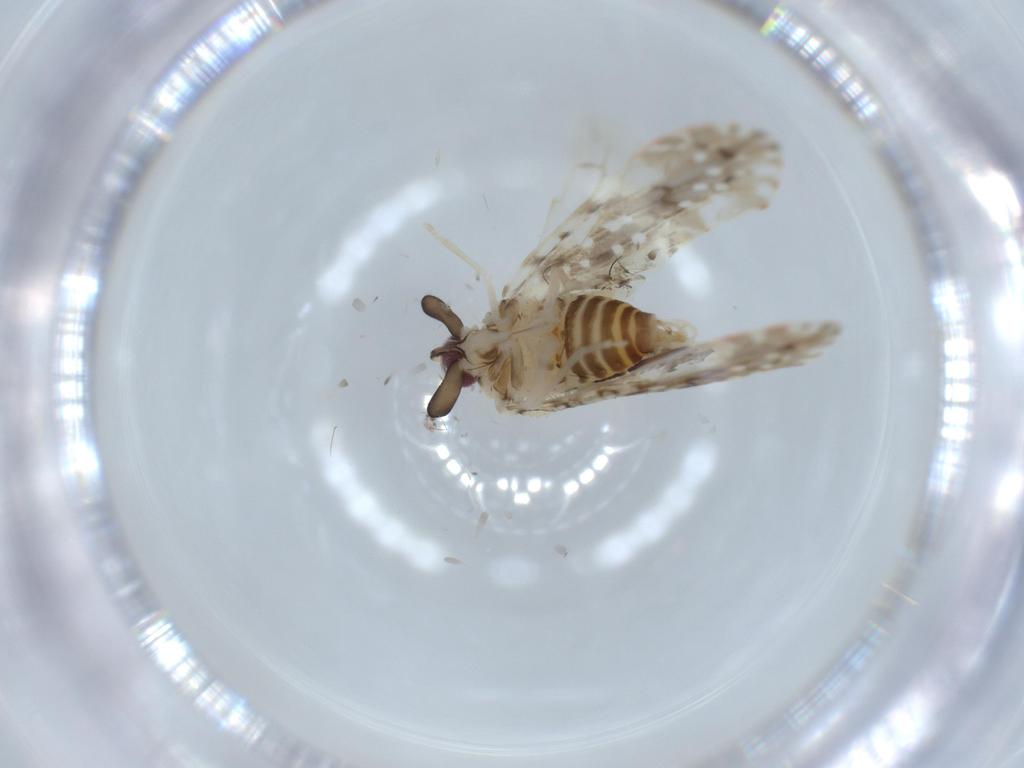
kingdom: Animalia
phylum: Arthropoda
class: Insecta
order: Hemiptera
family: Derbidae
